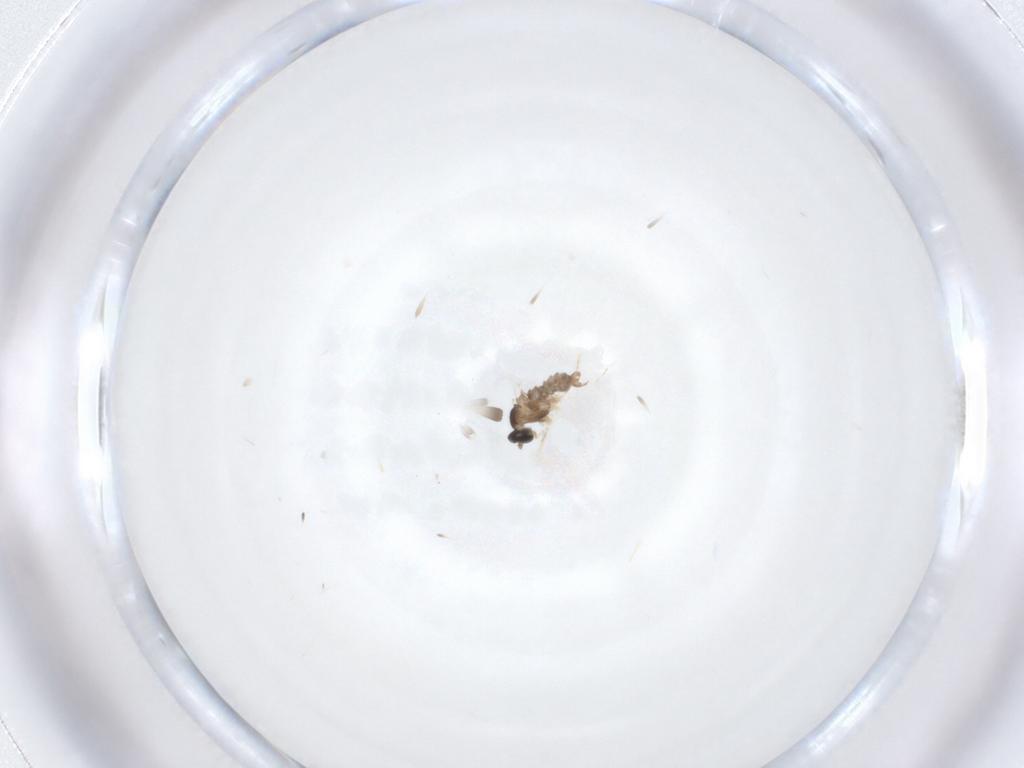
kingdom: Animalia
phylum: Arthropoda
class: Insecta
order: Diptera
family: Cecidomyiidae
